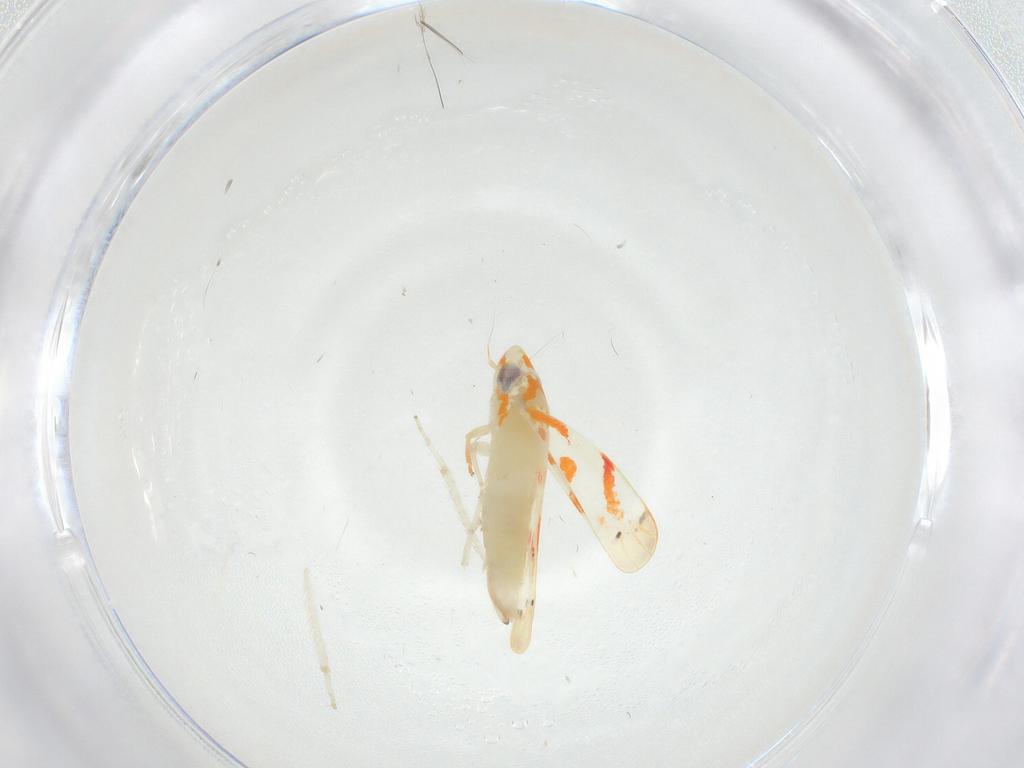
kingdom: Animalia
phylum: Arthropoda
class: Insecta
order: Hemiptera
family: Cicadellidae
